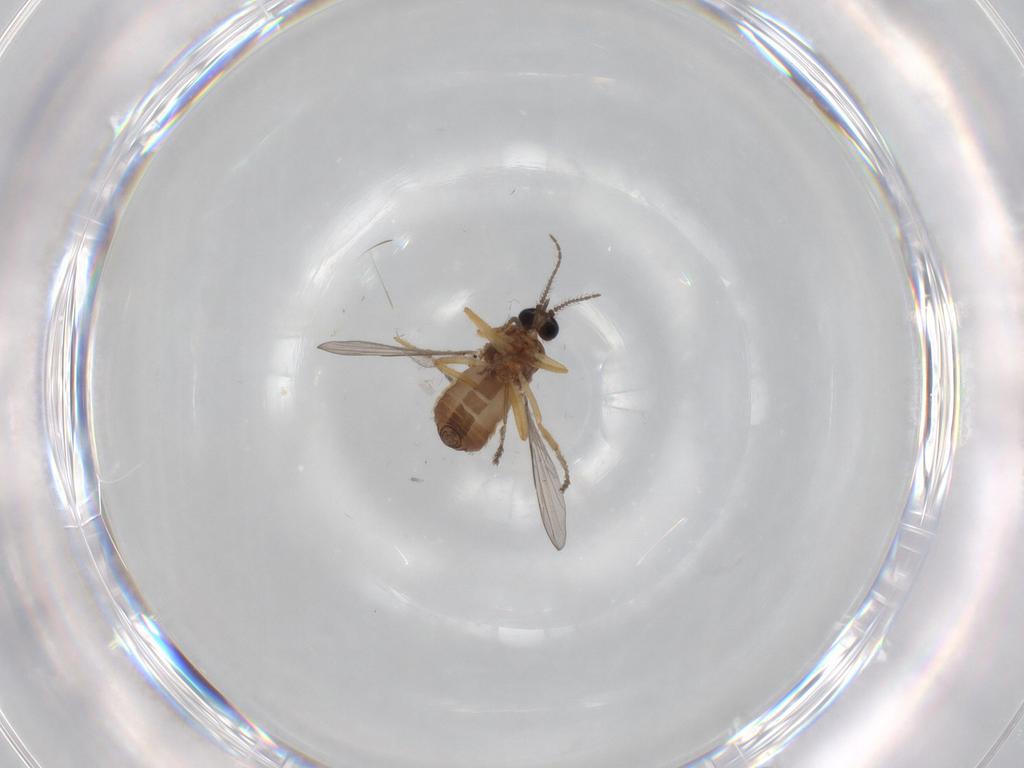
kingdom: Animalia
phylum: Arthropoda
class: Insecta
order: Diptera
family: Ceratopogonidae
